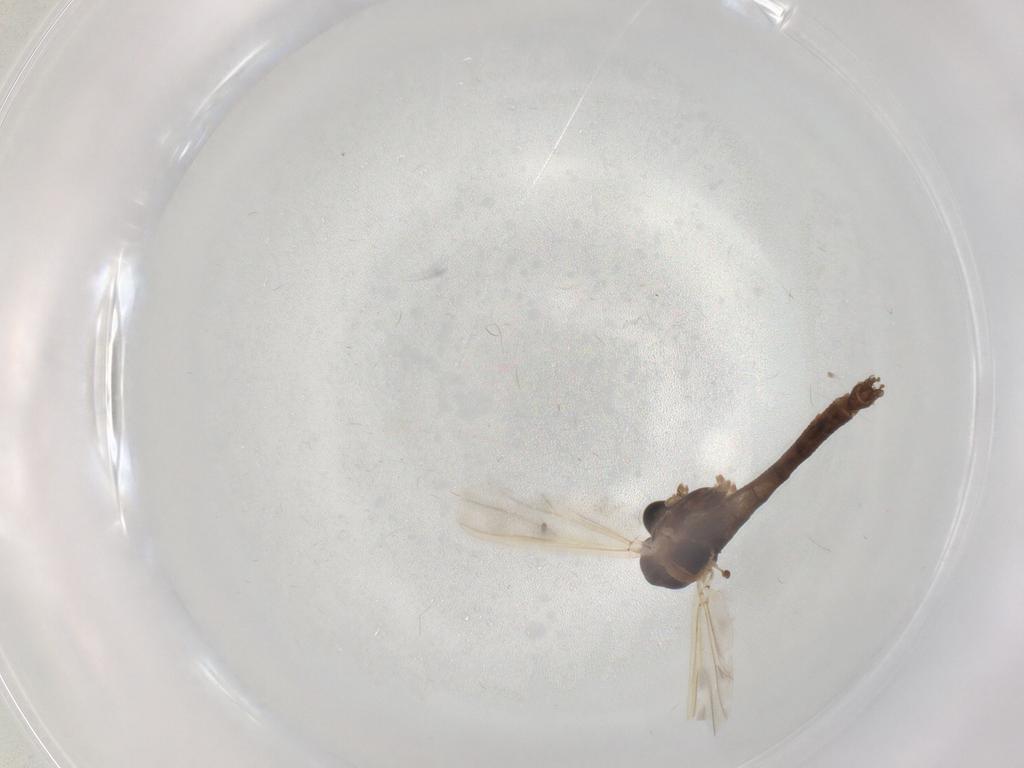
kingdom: Animalia
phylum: Arthropoda
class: Insecta
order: Diptera
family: Chironomidae
